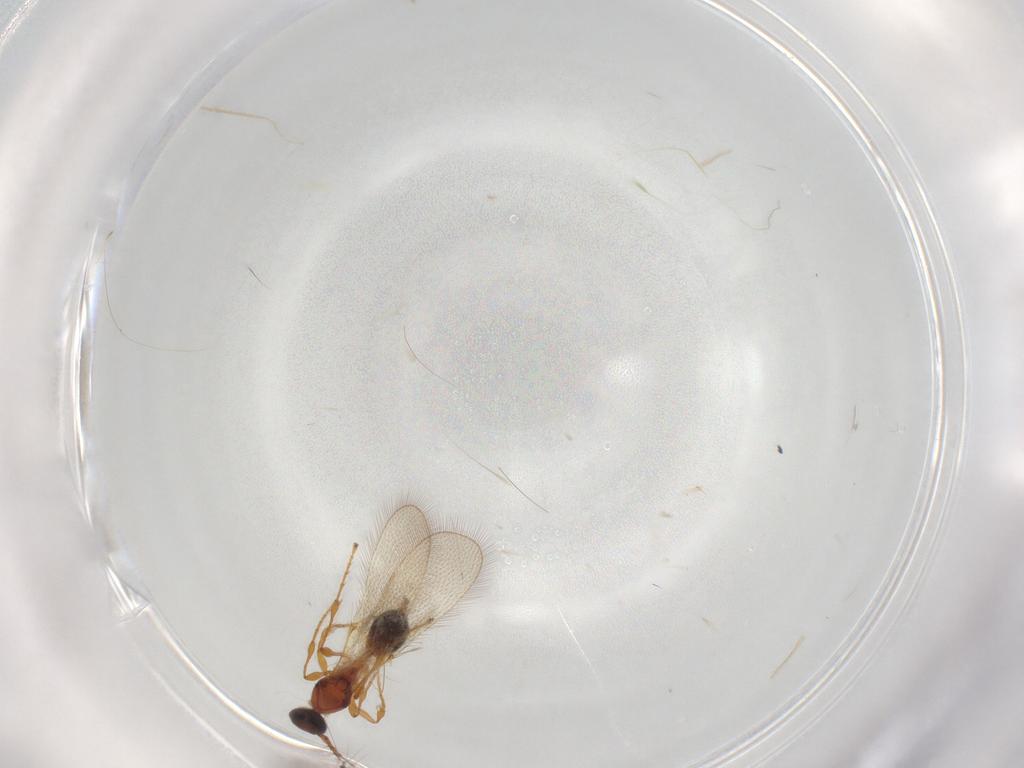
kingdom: Animalia
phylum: Arthropoda
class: Insecta
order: Hymenoptera
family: Diapriidae
